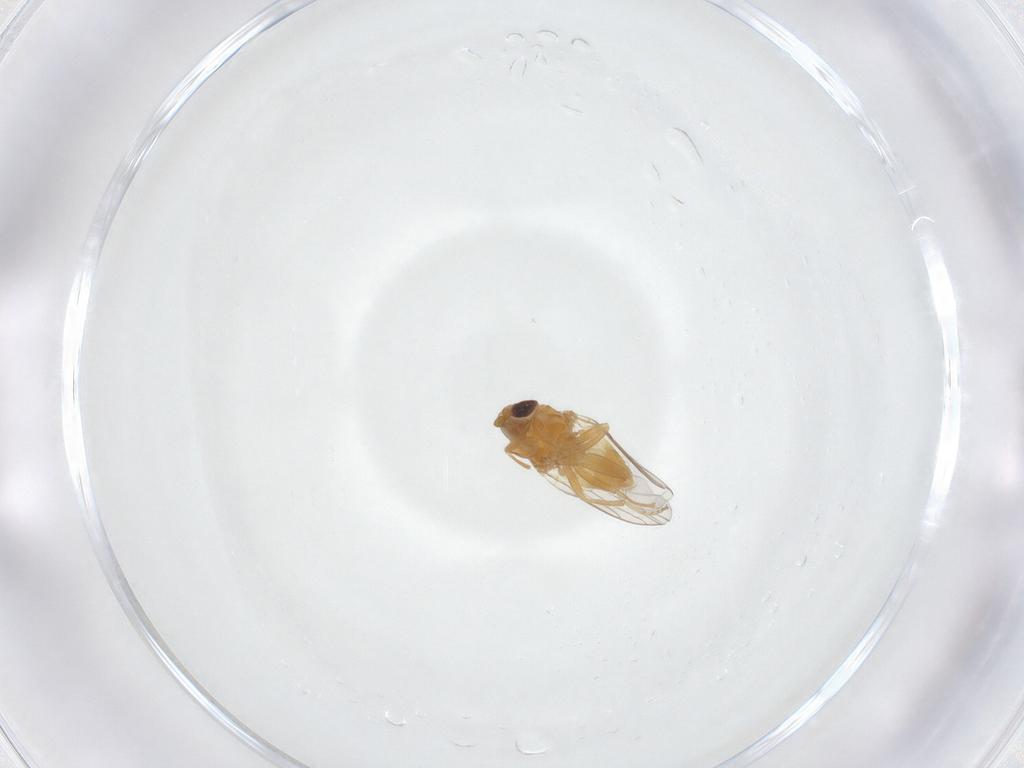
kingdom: Animalia
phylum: Arthropoda
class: Insecta
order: Diptera
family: Chloropidae
